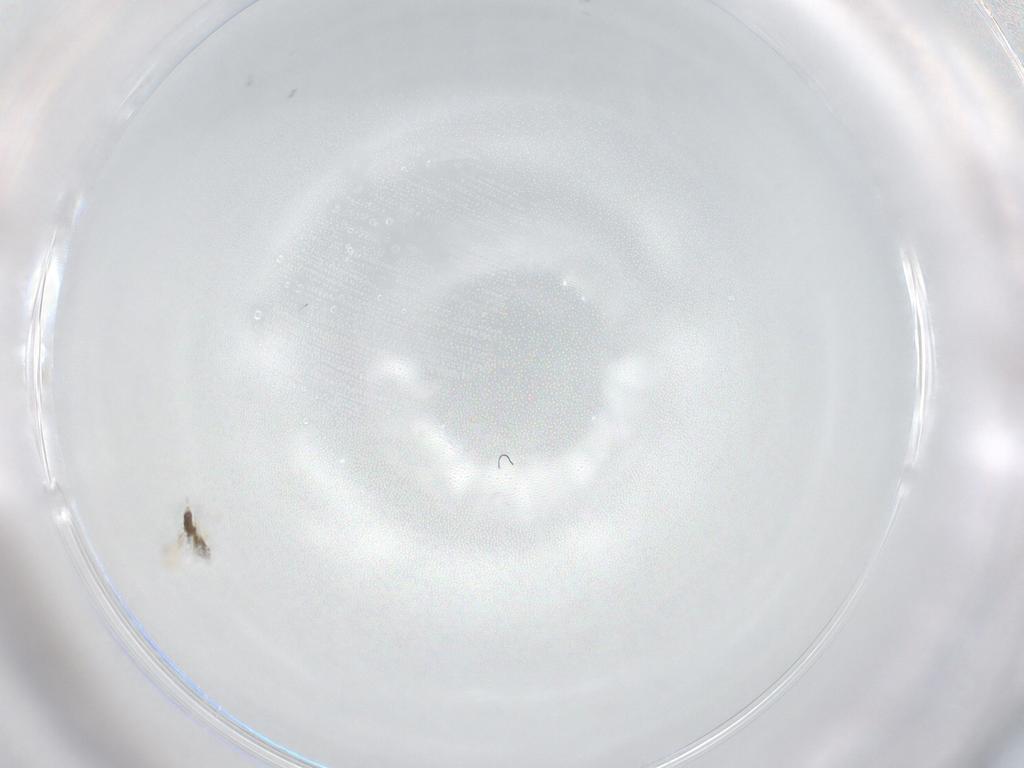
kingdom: Animalia
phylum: Arthropoda
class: Insecta
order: Hymenoptera
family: Mymaridae
